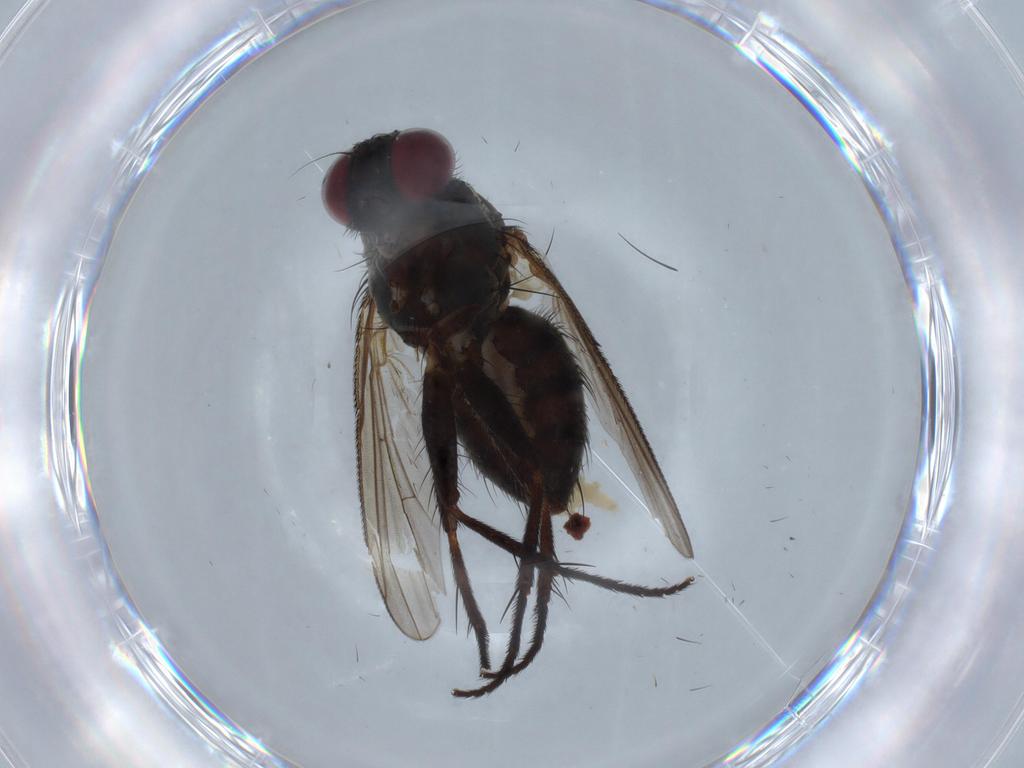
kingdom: Animalia
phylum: Arthropoda
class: Insecta
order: Diptera
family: Muscidae
